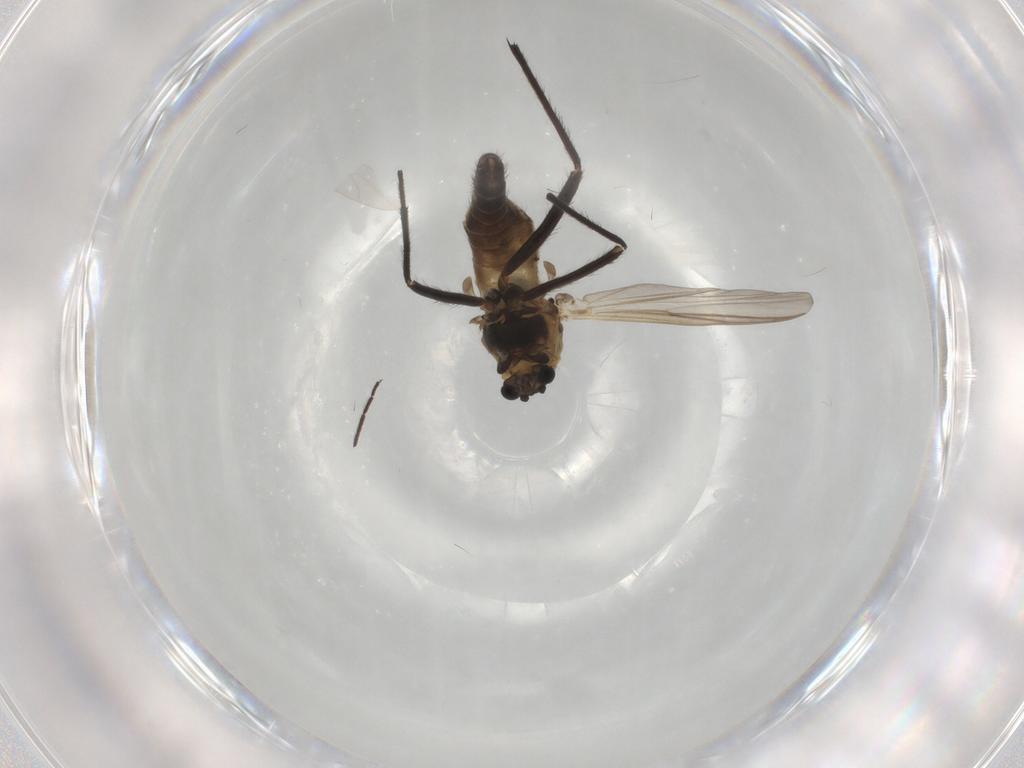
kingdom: Animalia
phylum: Arthropoda
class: Insecta
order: Diptera
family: Chironomidae
